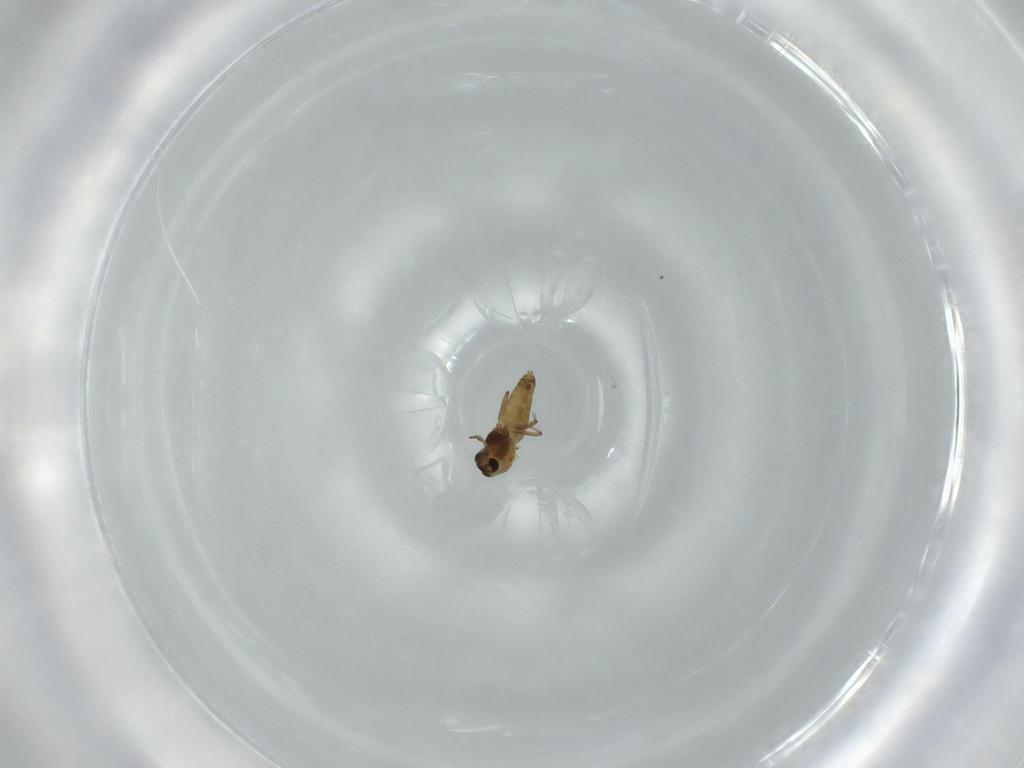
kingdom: Animalia
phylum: Arthropoda
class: Insecta
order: Diptera
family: Chironomidae
